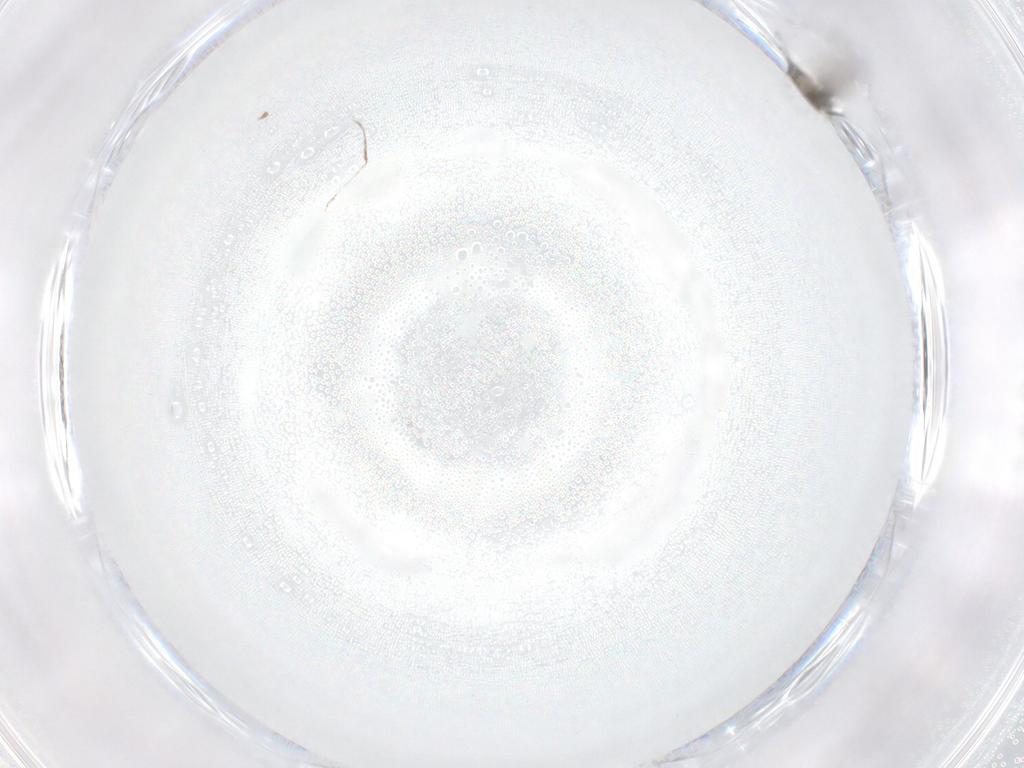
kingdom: Animalia
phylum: Arthropoda
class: Insecta
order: Diptera
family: Cecidomyiidae
